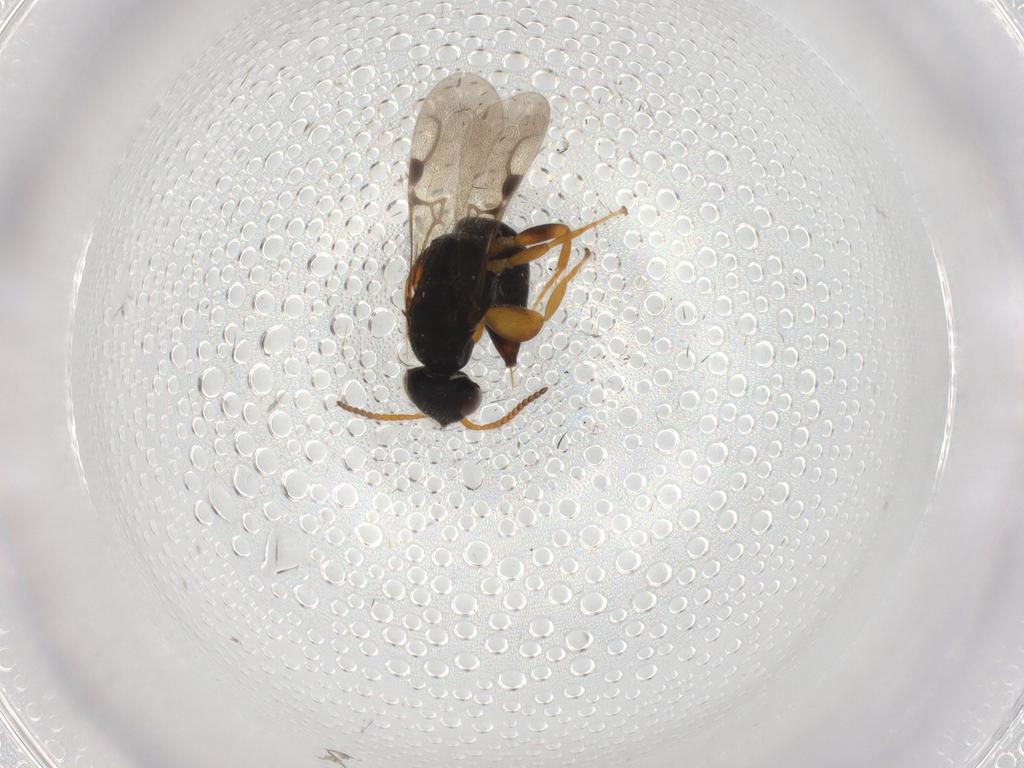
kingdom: Animalia
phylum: Arthropoda
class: Insecta
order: Hymenoptera
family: Bethylidae
